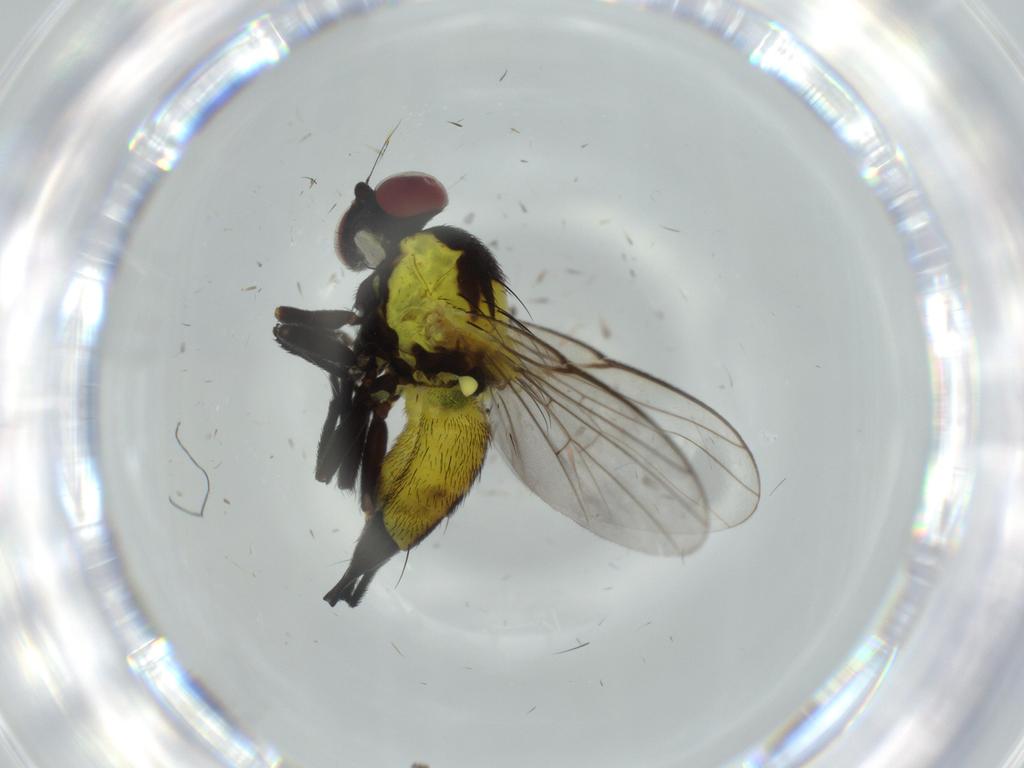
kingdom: Animalia
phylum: Arthropoda
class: Insecta
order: Diptera
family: Agromyzidae
